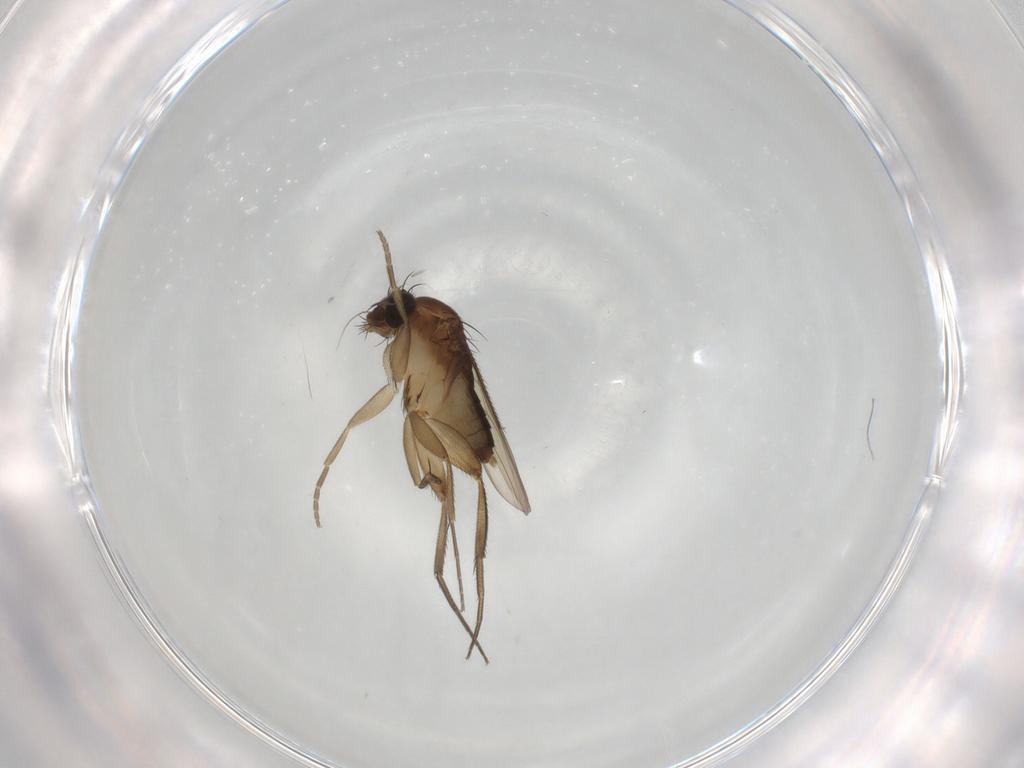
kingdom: Animalia
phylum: Arthropoda
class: Insecta
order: Diptera
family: Phoridae
